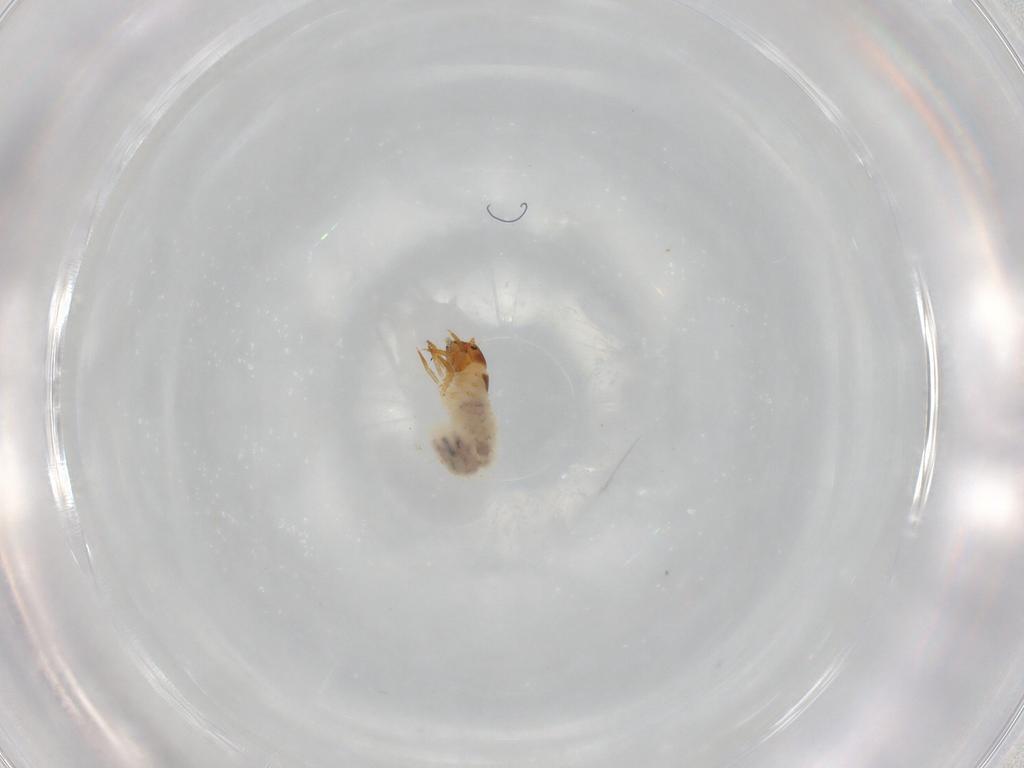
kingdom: Animalia
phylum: Arthropoda
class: Insecta
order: Coleoptera
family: Chrysomelidae
